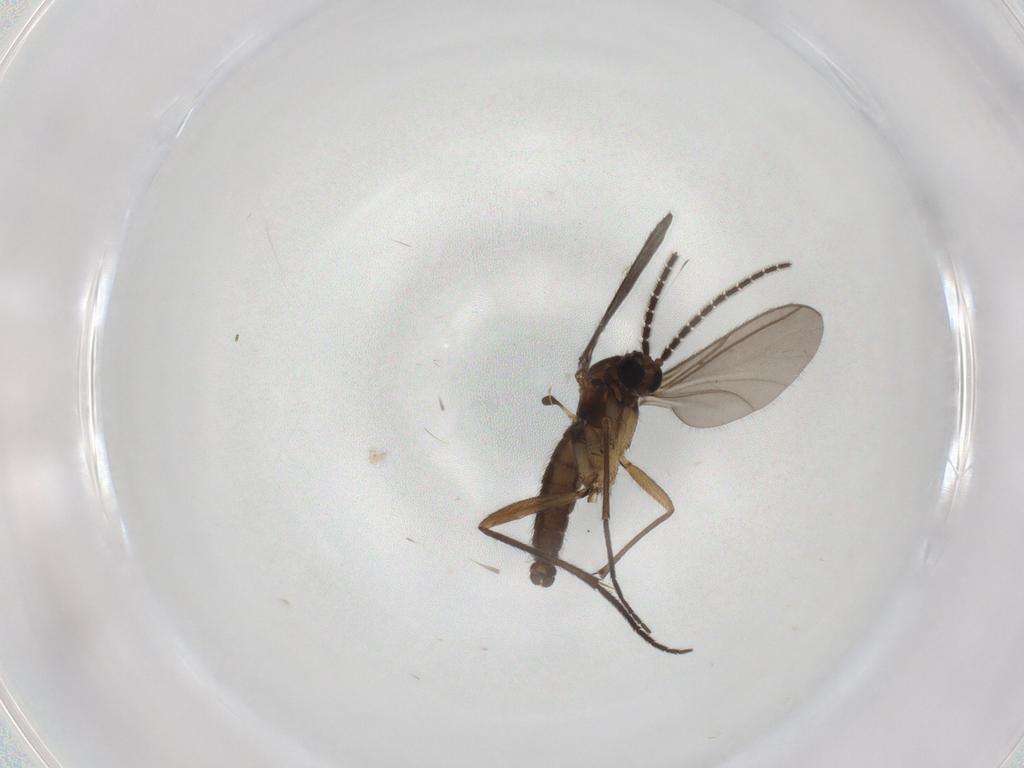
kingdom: Animalia
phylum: Arthropoda
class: Insecta
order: Diptera
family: Sciaridae
